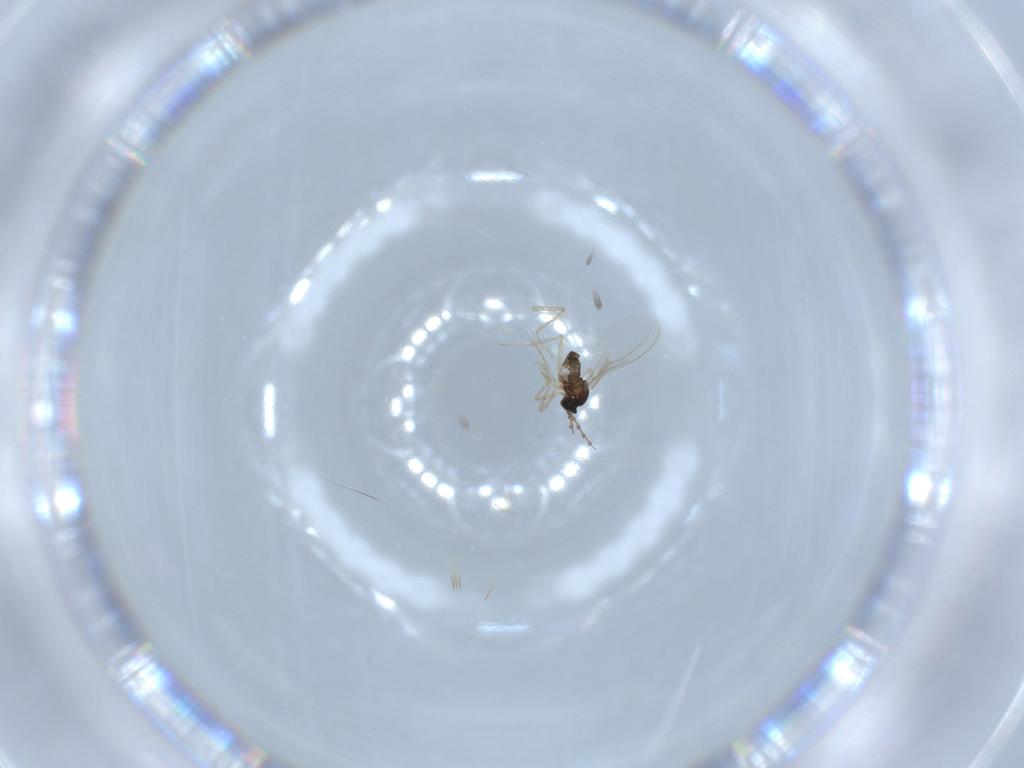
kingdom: Animalia
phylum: Arthropoda
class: Insecta
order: Diptera
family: Cecidomyiidae
